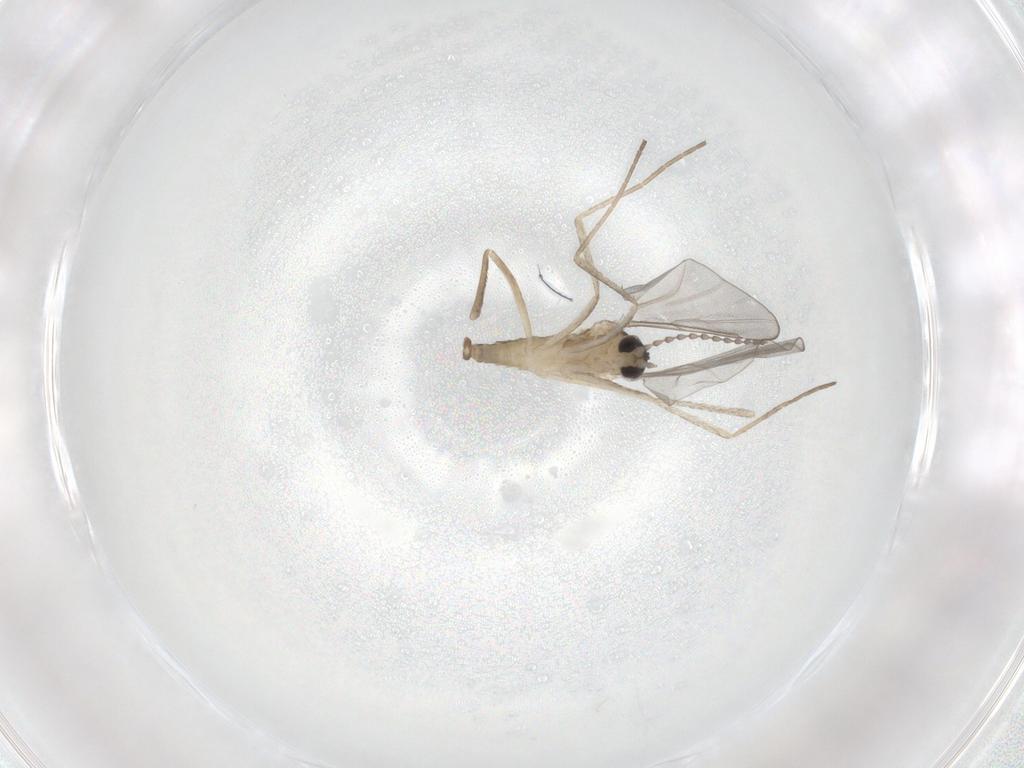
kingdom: Animalia
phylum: Arthropoda
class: Insecta
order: Diptera
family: Cecidomyiidae
